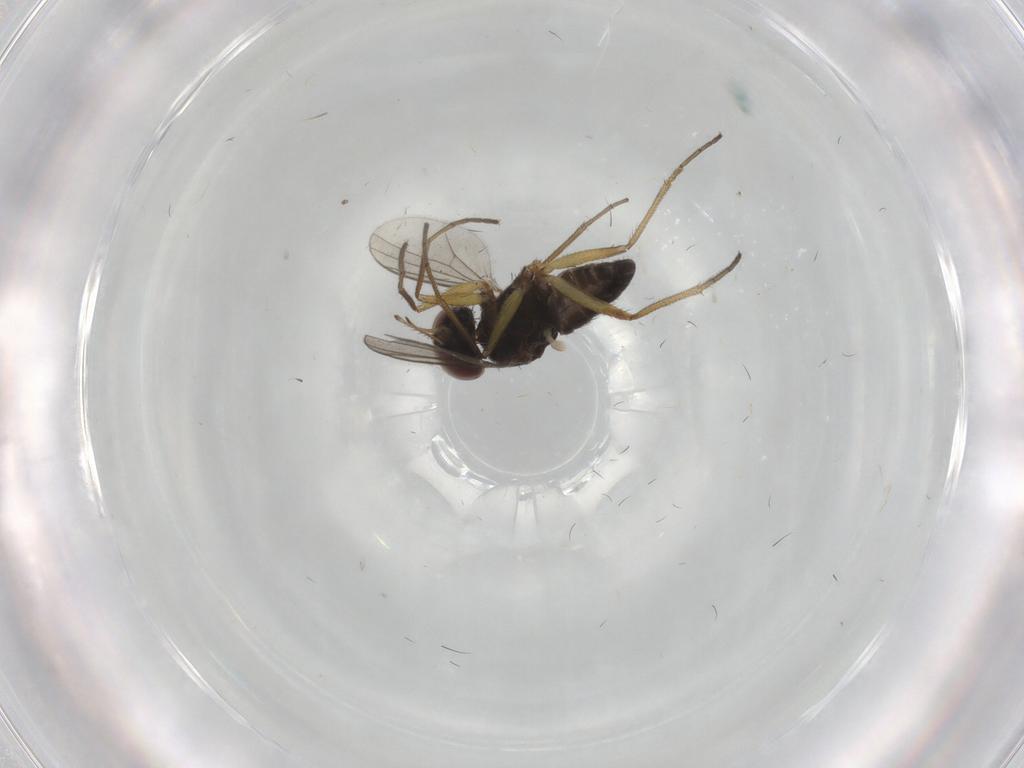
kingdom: Animalia
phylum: Arthropoda
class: Insecta
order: Diptera
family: Dolichopodidae
